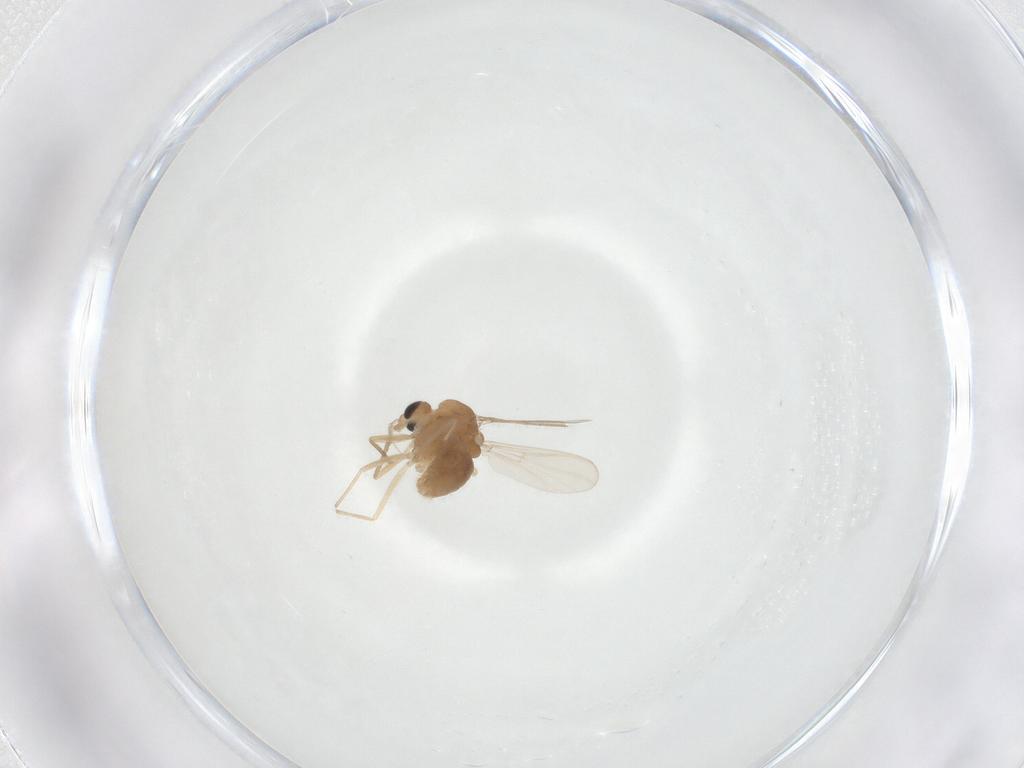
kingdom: Animalia
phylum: Arthropoda
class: Insecta
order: Diptera
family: Chironomidae
